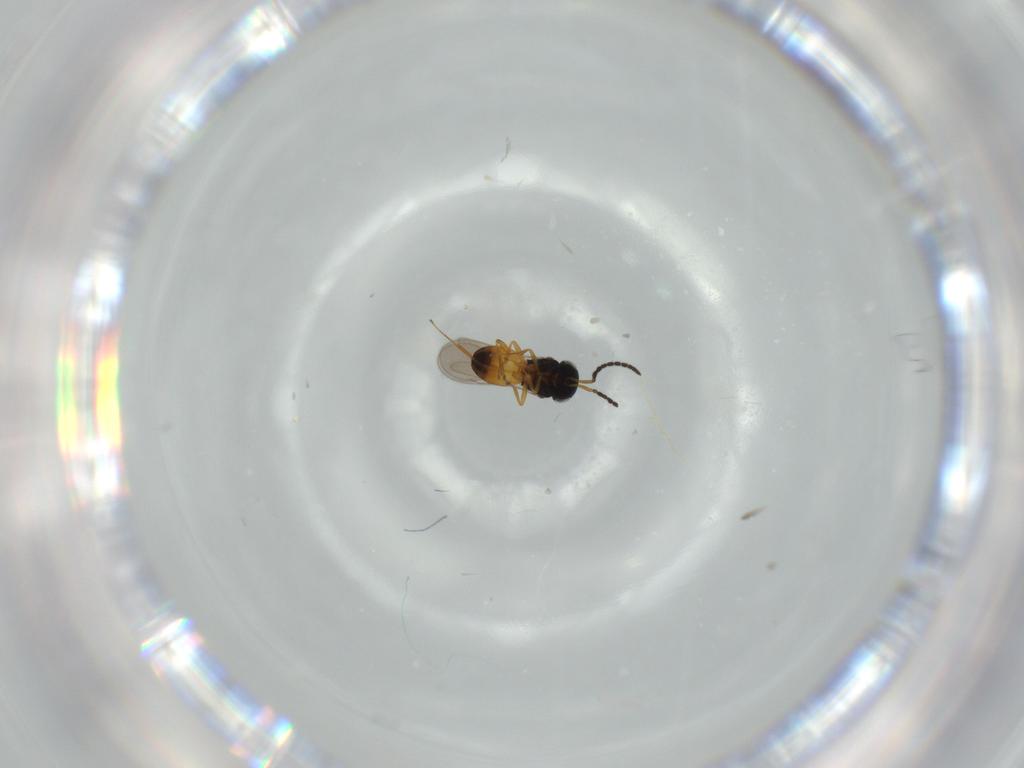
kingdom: Animalia
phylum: Arthropoda
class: Insecta
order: Hymenoptera
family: Scelionidae
